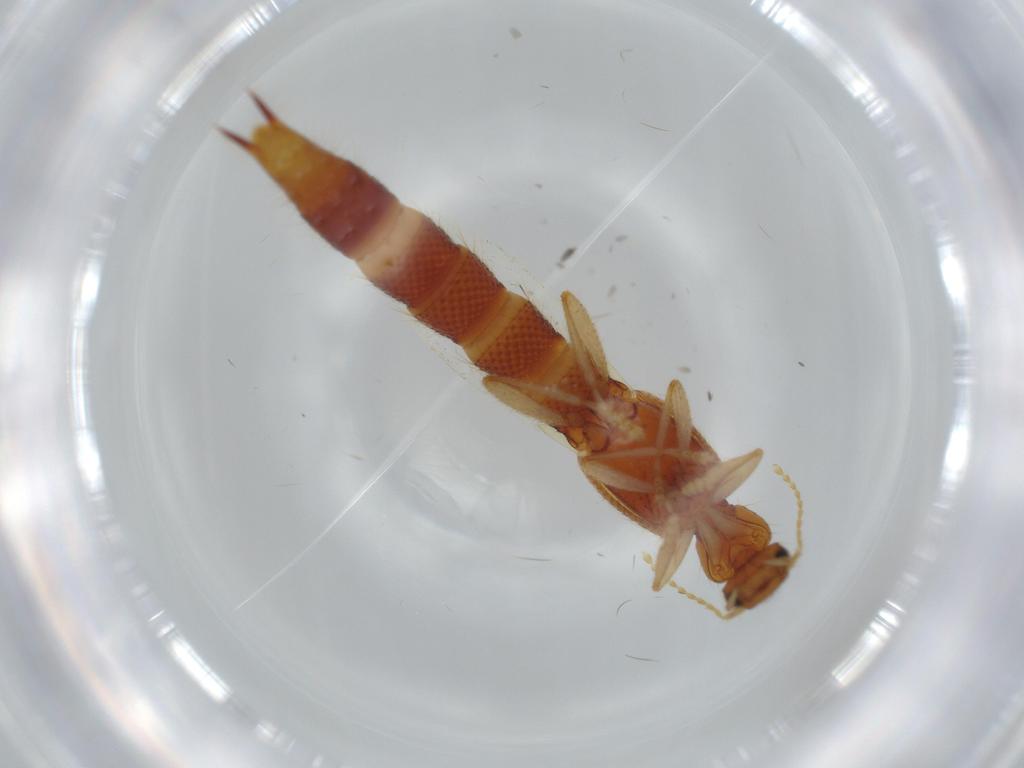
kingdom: Animalia
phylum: Arthropoda
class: Insecta
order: Coleoptera
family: Staphylinidae
